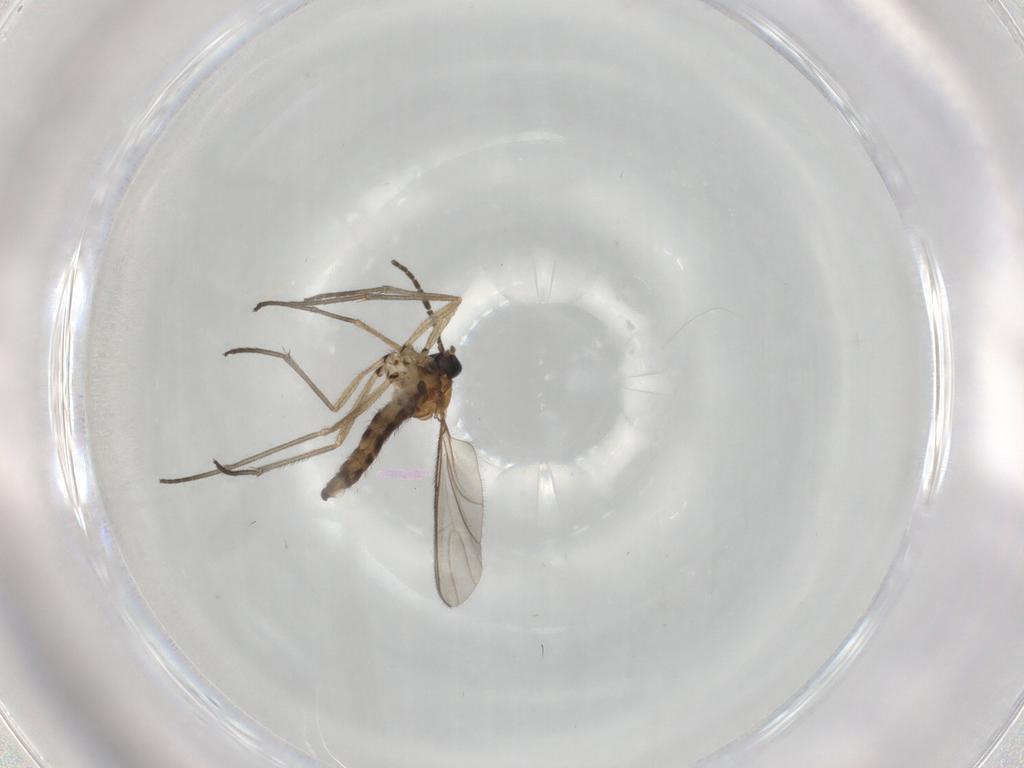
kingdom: Animalia
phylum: Arthropoda
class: Insecta
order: Diptera
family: Sciaridae
